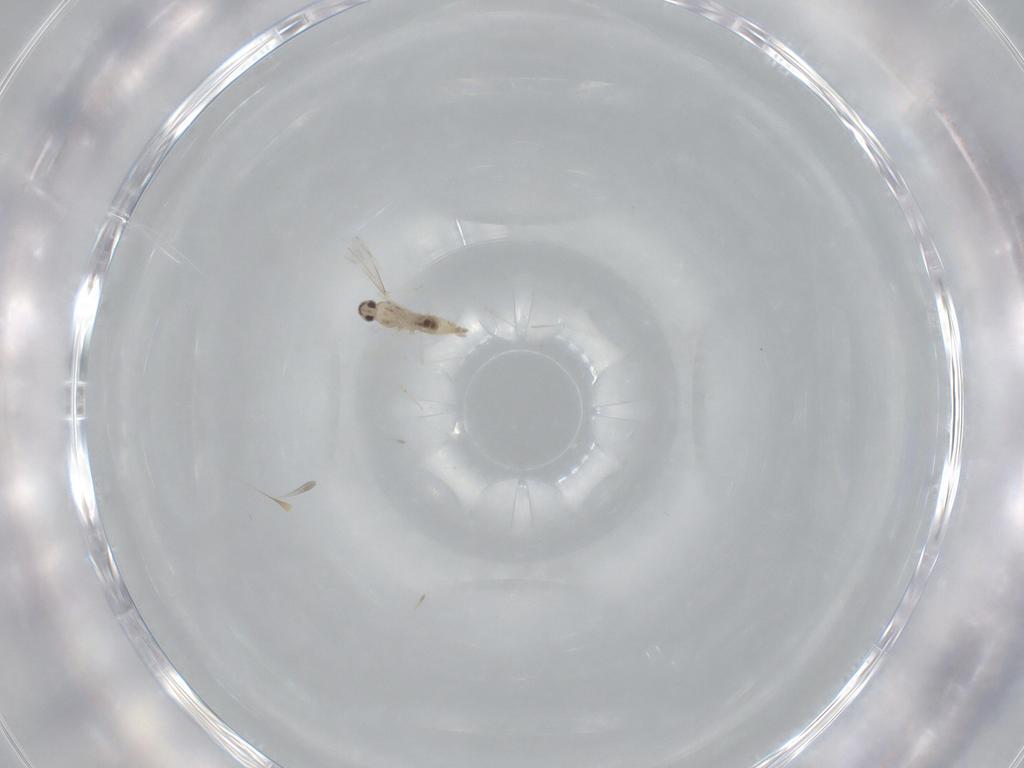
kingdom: Animalia
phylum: Arthropoda
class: Insecta
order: Diptera
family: Cecidomyiidae
